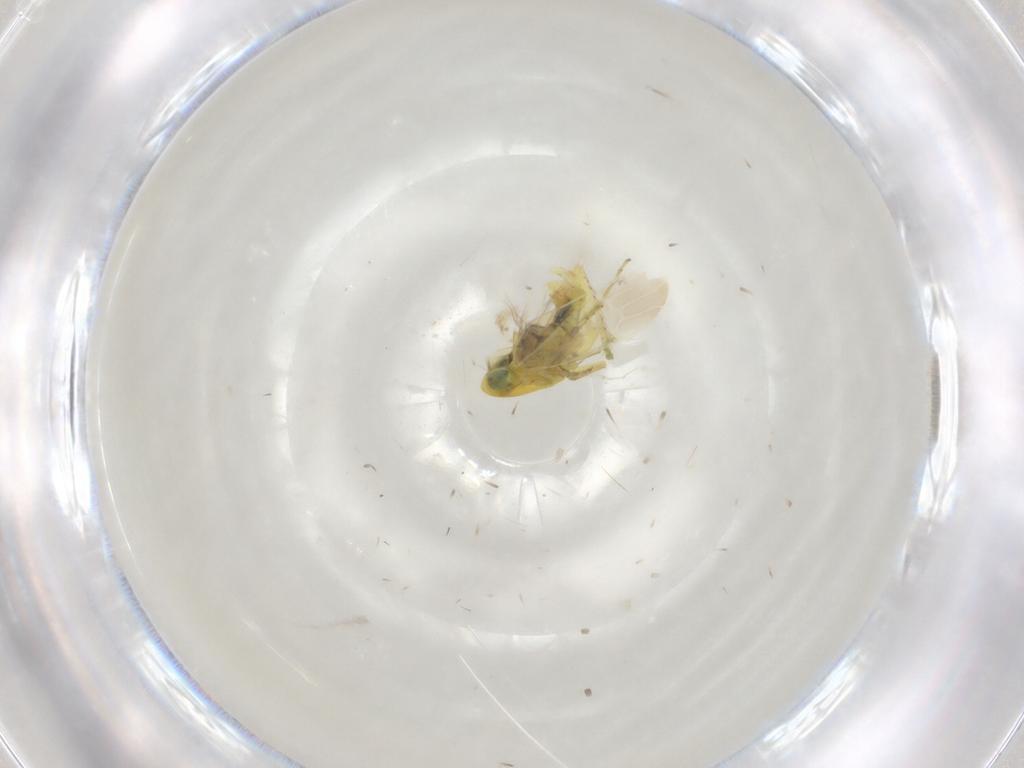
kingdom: Animalia
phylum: Arthropoda
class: Insecta
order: Hemiptera
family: Cicadellidae
